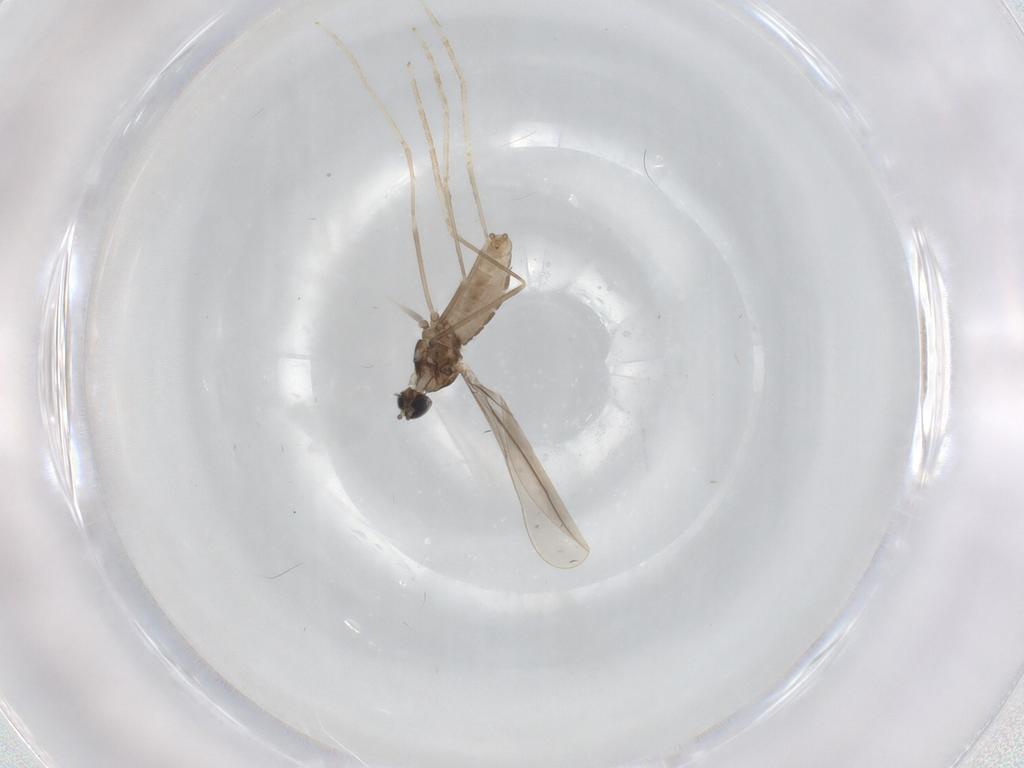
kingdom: Animalia
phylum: Arthropoda
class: Insecta
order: Diptera
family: Cecidomyiidae
